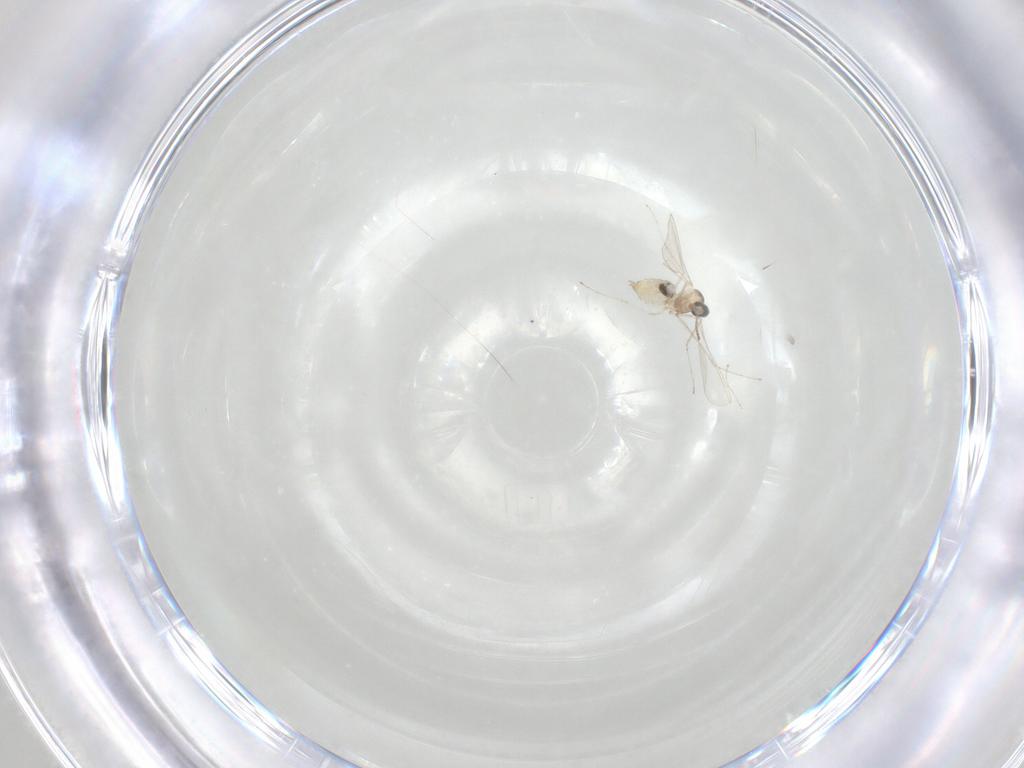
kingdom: Animalia
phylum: Arthropoda
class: Insecta
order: Diptera
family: Cecidomyiidae
